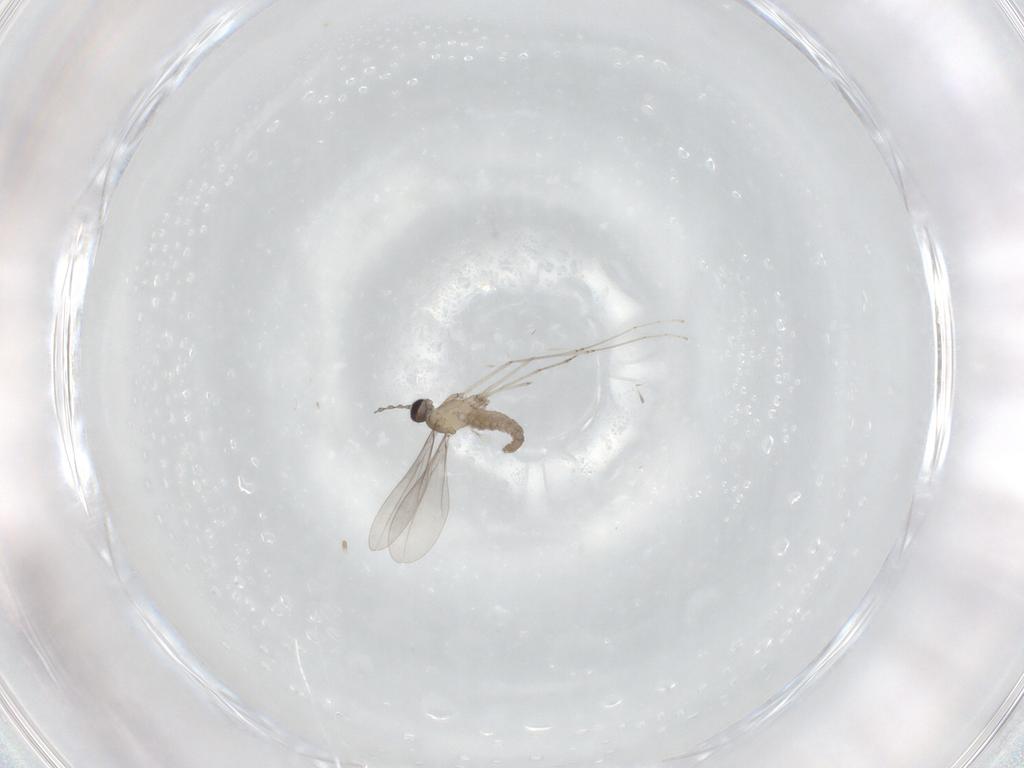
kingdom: Animalia
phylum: Arthropoda
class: Insecta
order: Diptera
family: Cecidomyiidae
